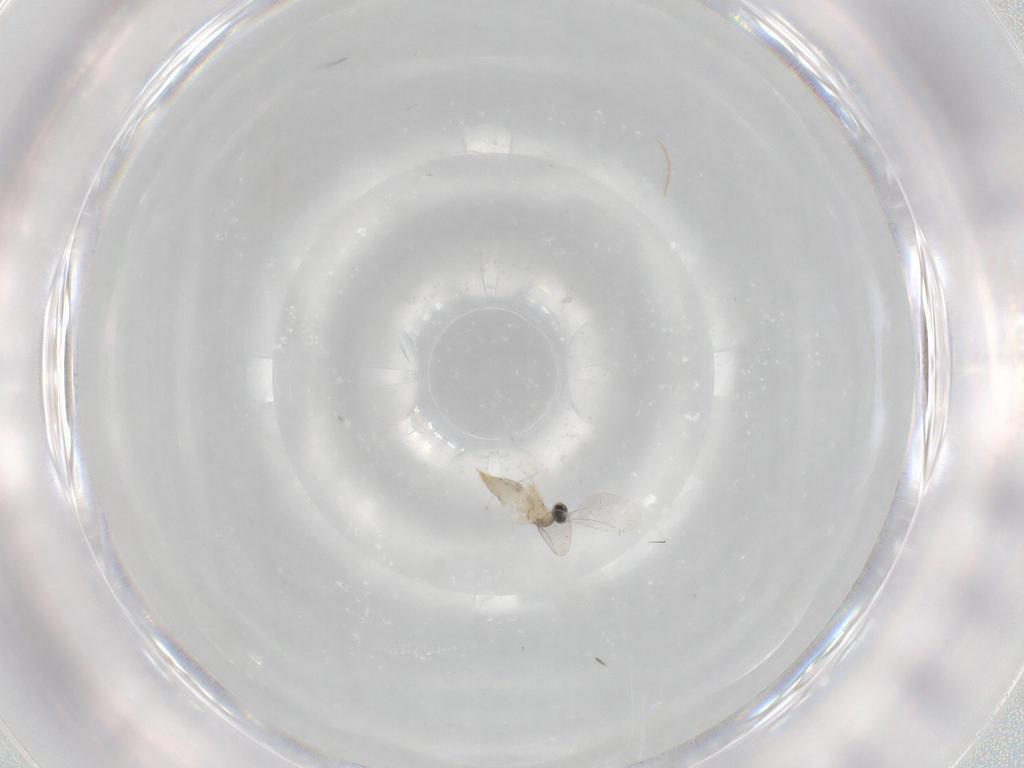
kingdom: Animalia
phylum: Arthropoda
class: Insecta
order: Diptera
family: Cecidomyiidae
